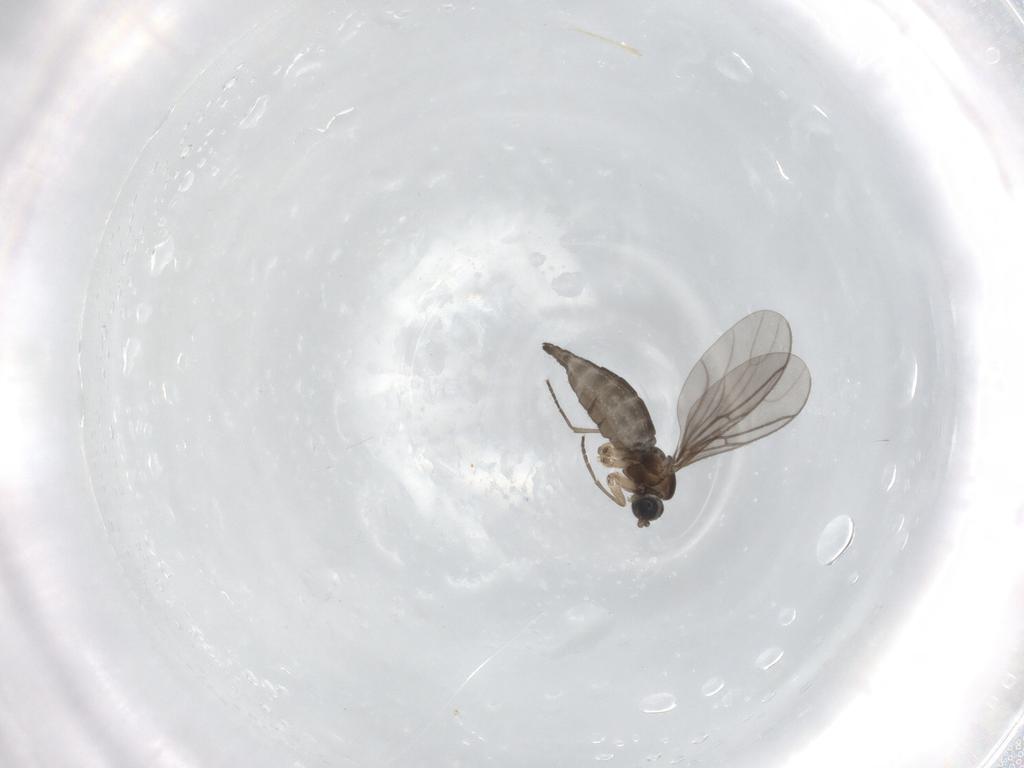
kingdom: Animalia
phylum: Arthropoda
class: Insecta
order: Diptera
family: Sciaridae
